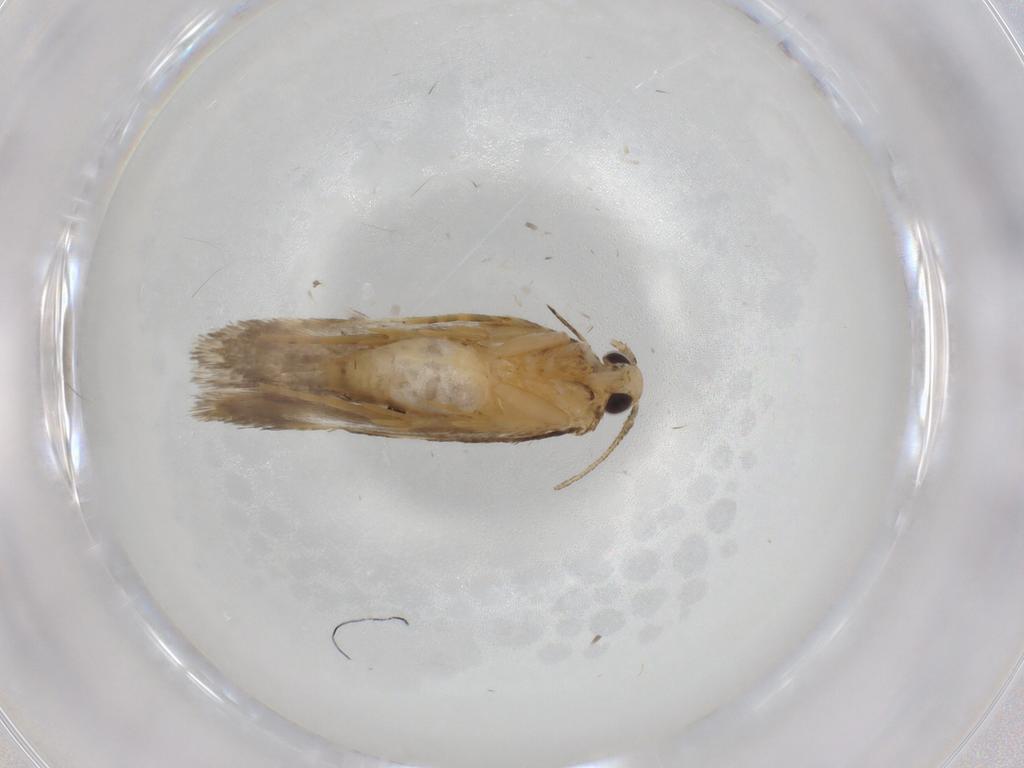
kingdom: Animalia
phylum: Arthropoda
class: Insecta
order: Lepidoptera
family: Autostichidae
